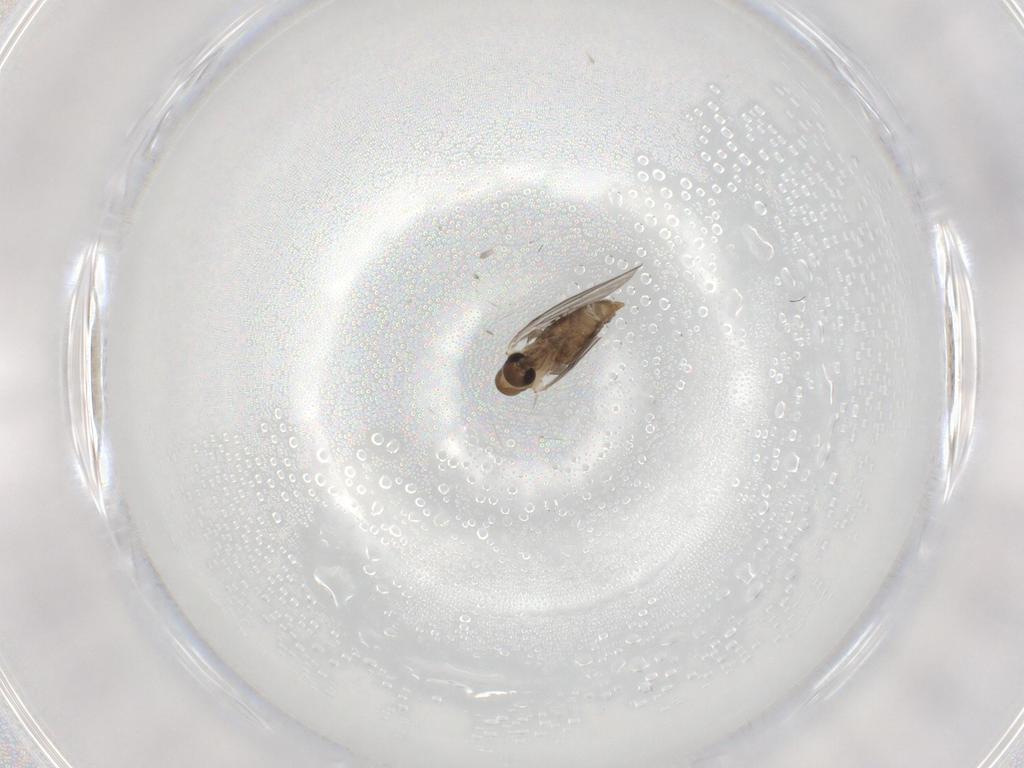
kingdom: Animalia
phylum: Arthropoda
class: Insecta
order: Diptera
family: Psychodidae
